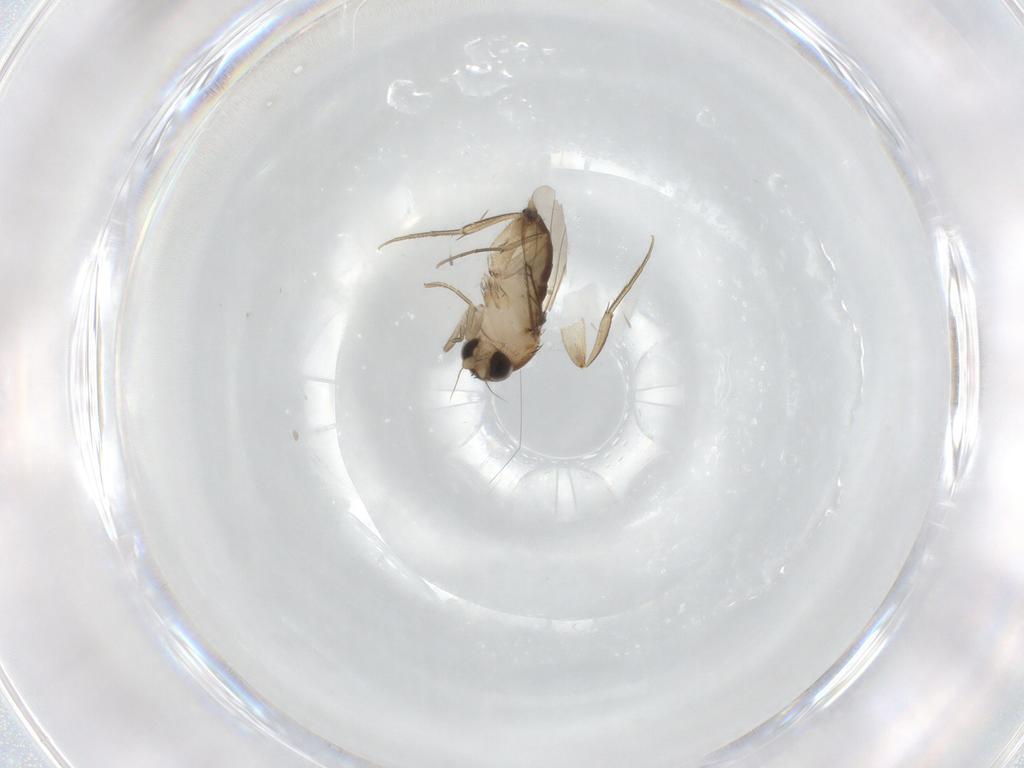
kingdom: Animalia
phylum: Arthropoda
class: Insecta
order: Diptera
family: Phoridae
